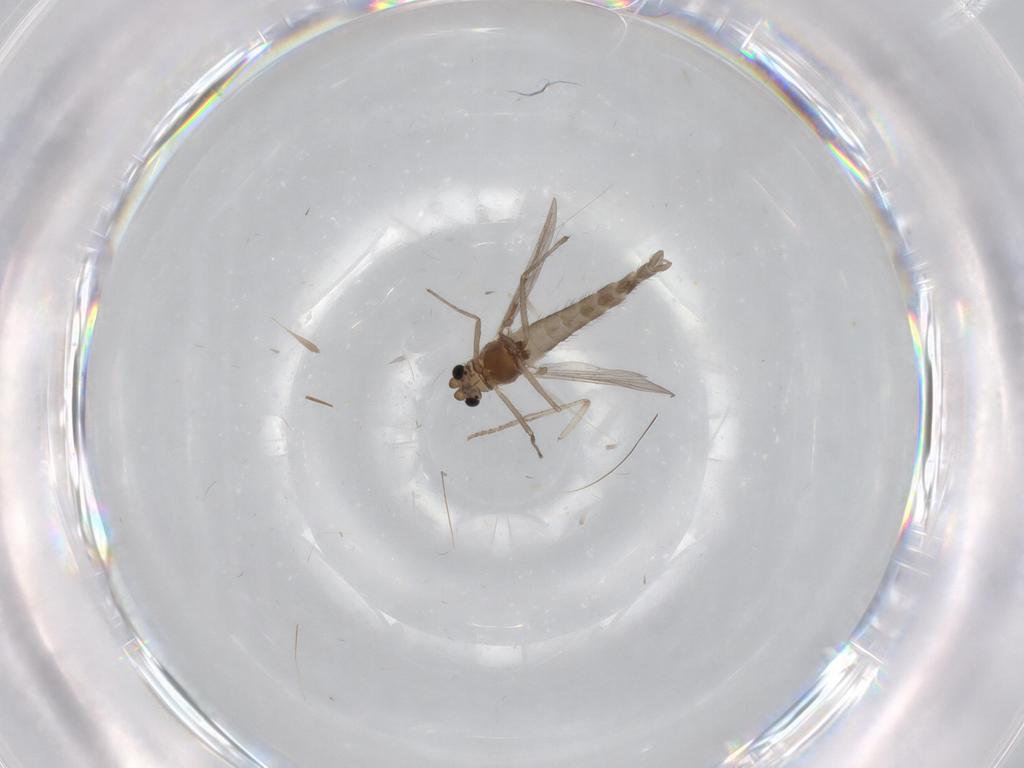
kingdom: Animalia
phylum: Arthropoda
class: Insecta
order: Diptera
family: Chironomidae
